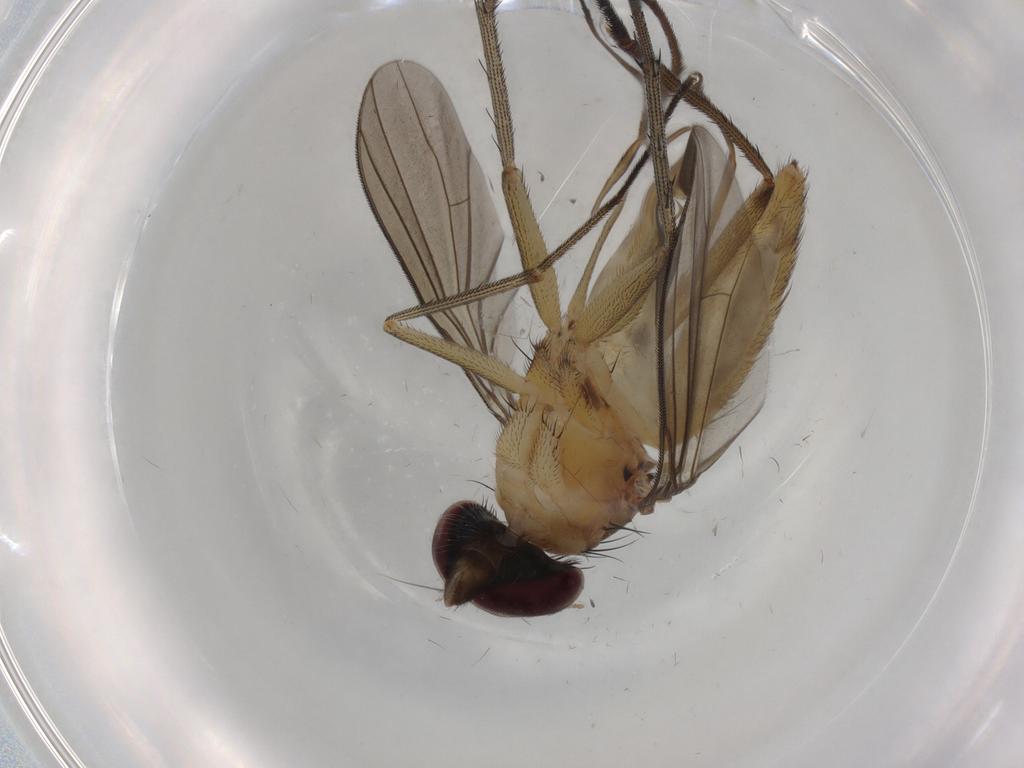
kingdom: Animalia
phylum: Arthropoda
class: Insecta
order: Diptera
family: Dolichopodidae
